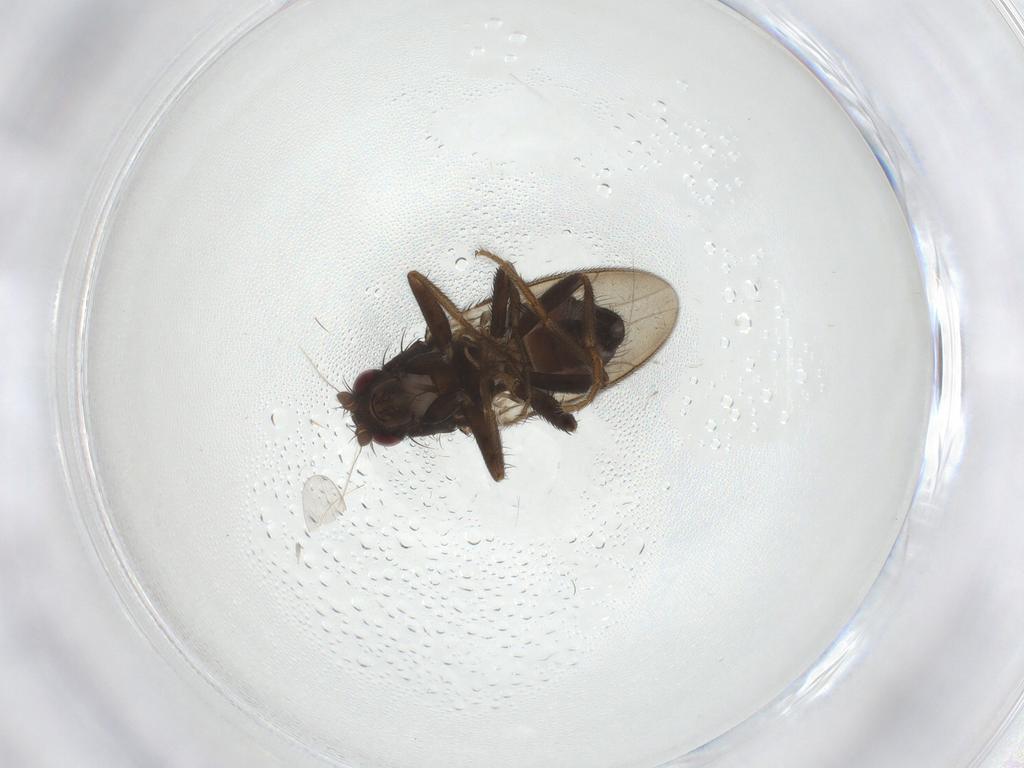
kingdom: Animalia
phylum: Arthropoda
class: Insecta
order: Diptera
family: Sphaeroceridae
